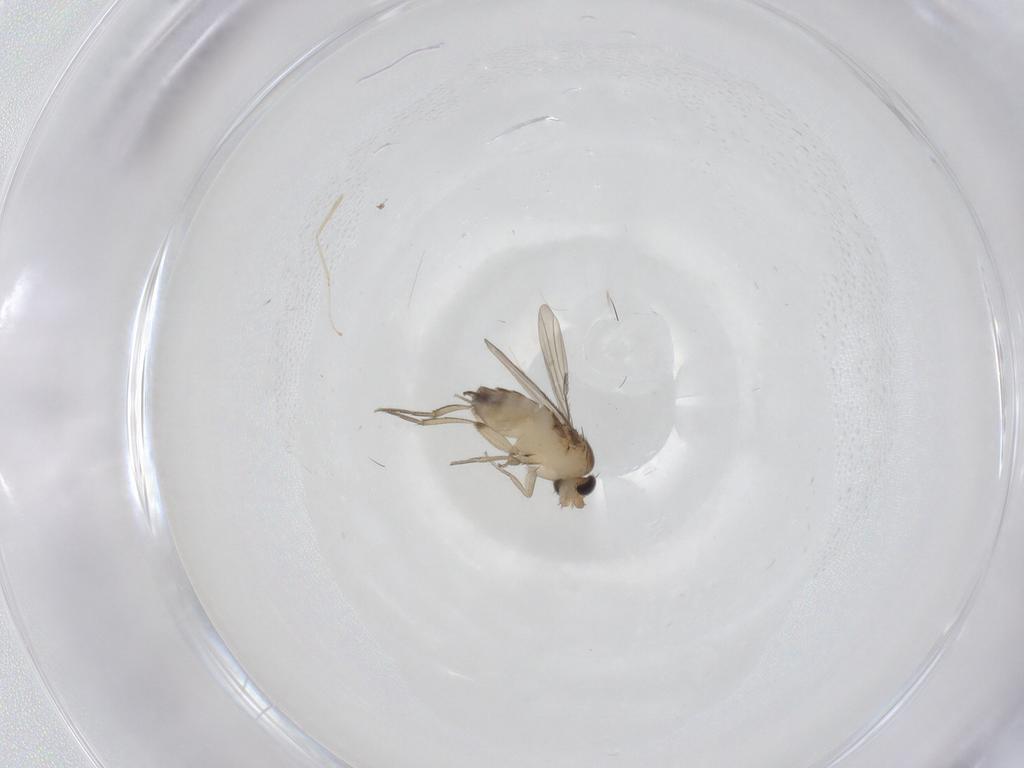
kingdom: Animalia
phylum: Arthropoda
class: Insecta
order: Diptera
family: Phoridae
